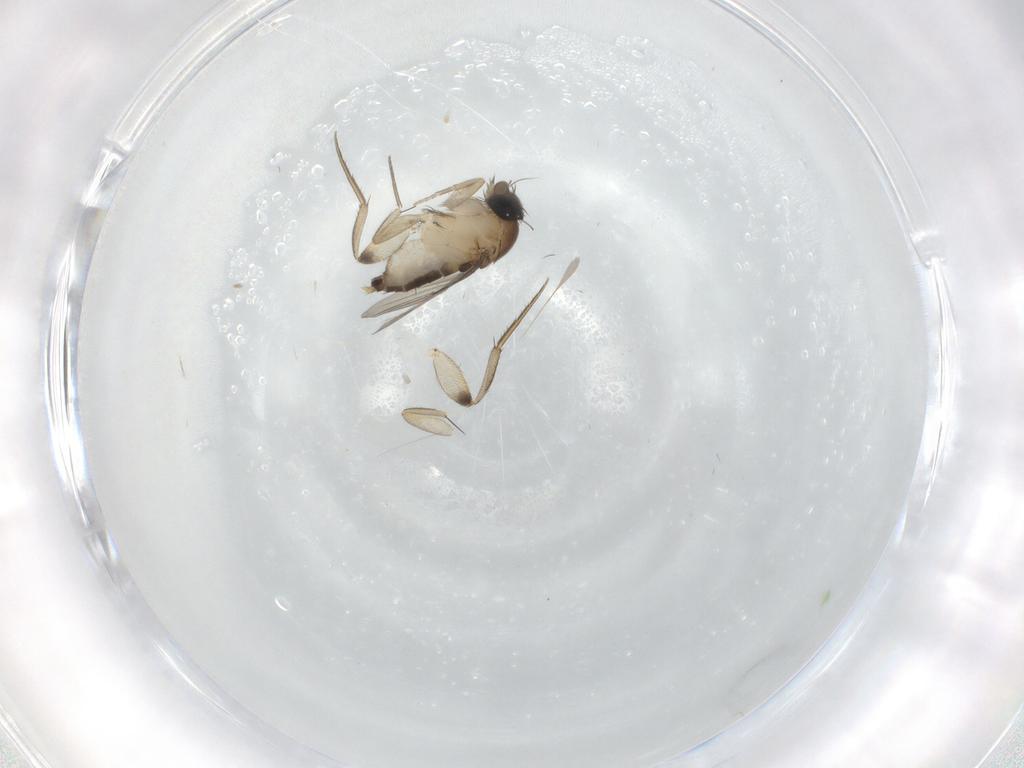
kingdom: Animalia
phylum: Arthropoda
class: Insecta
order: Diptera
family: Phoridae
